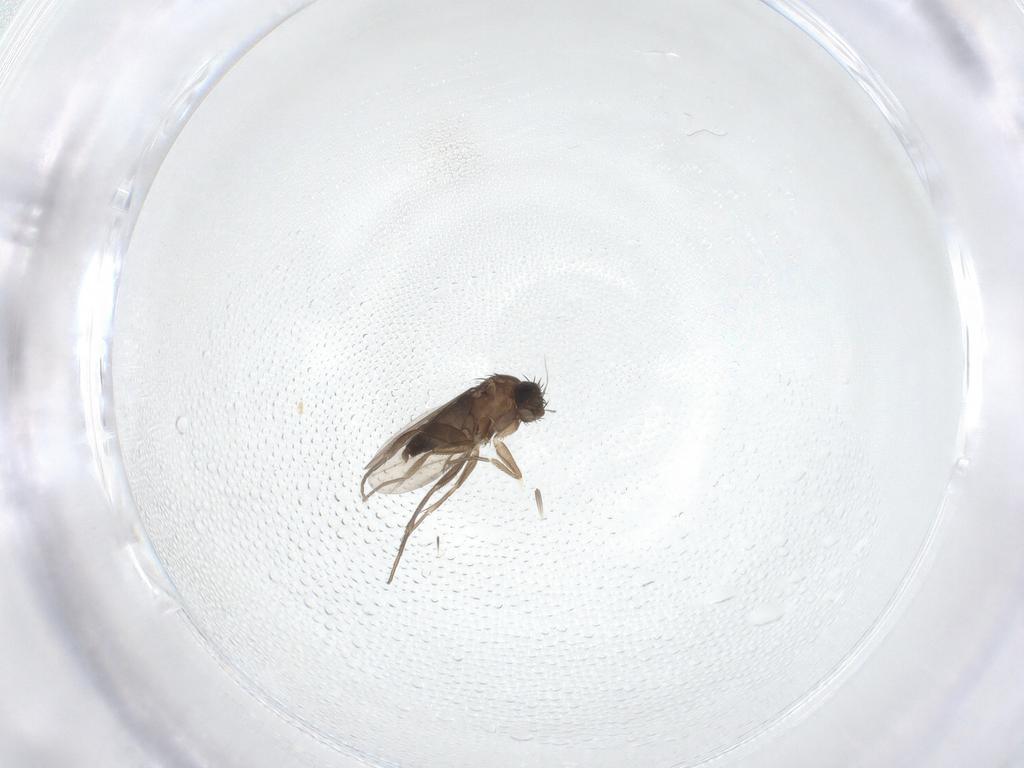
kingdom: Animalia
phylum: Arthropoda
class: Insecta
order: Diptera
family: Phoridae
